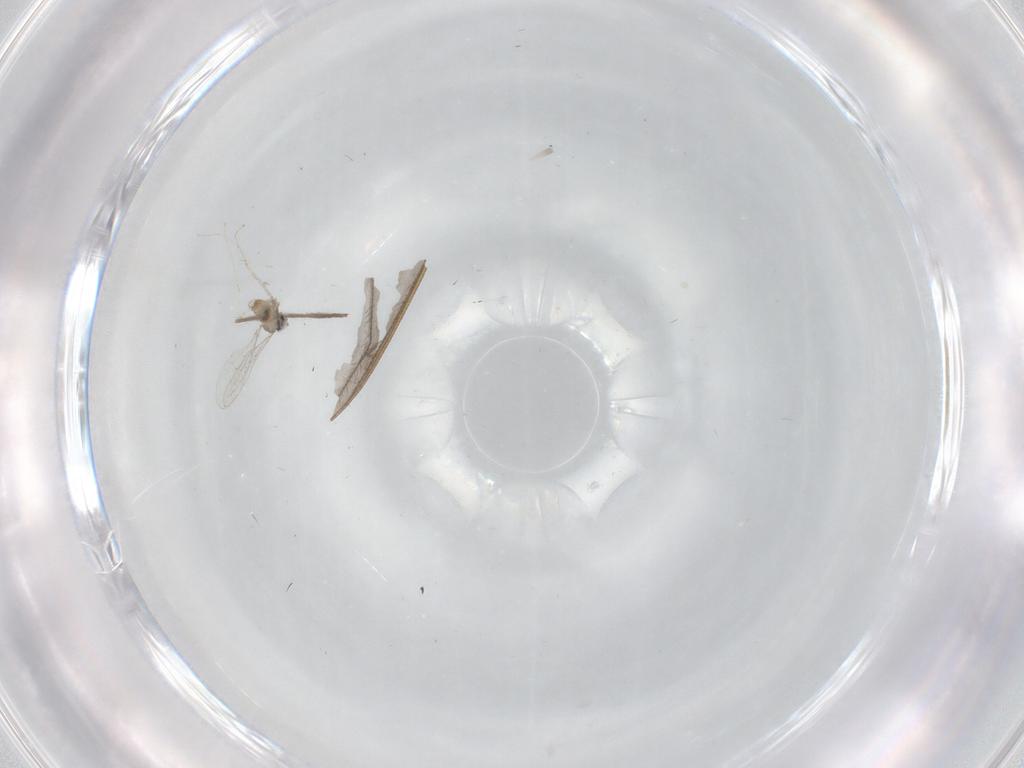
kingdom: Animalia
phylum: Arthropoda
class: Insecta
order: Diptera
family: Cecidomyiidae
